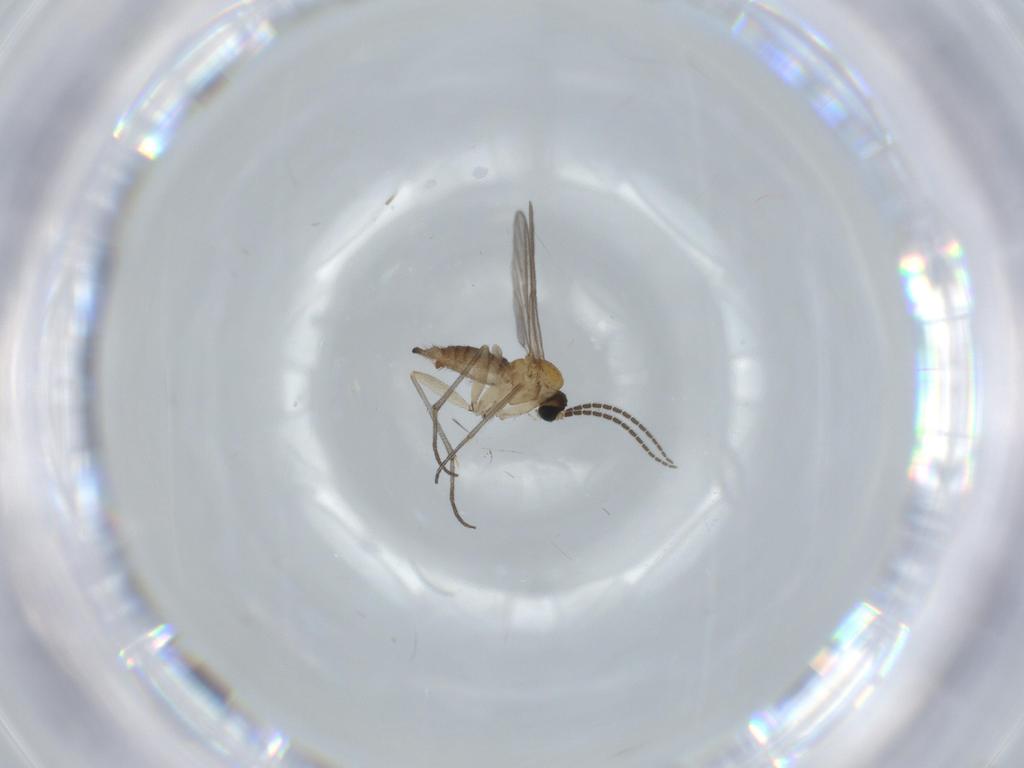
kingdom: Animalia
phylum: Arthropoda
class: Insecta
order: Diptera
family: Sciaridae
